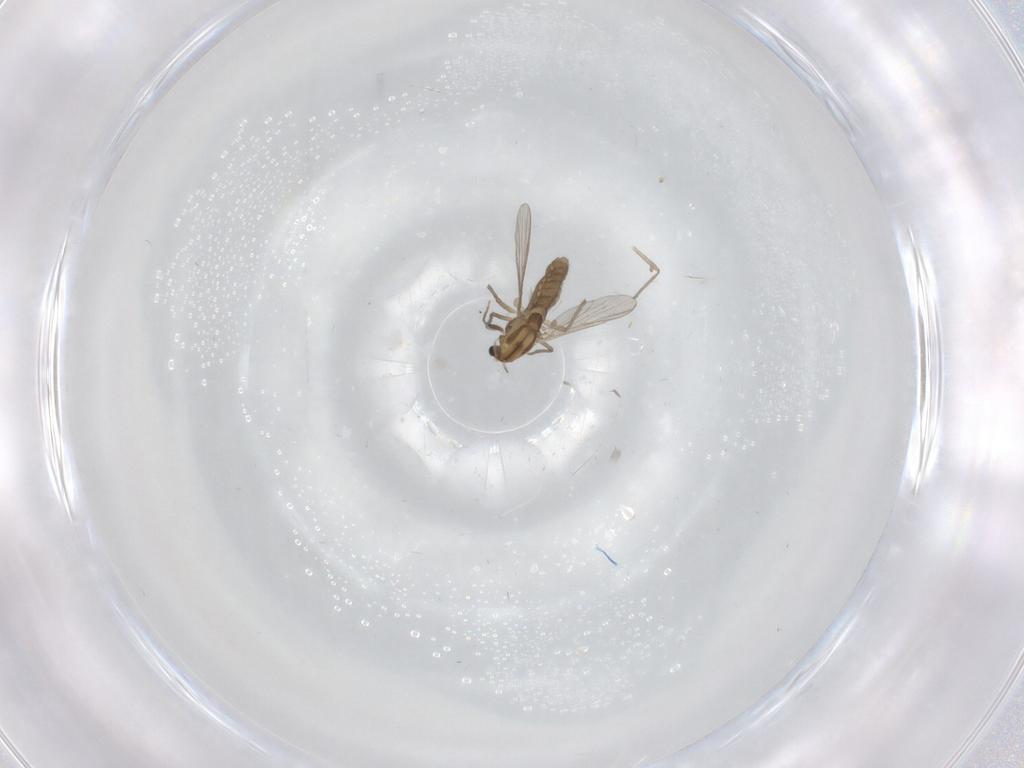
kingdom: Animalia
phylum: Arthropoda
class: Insecta
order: Diptera
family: Chironomidae
